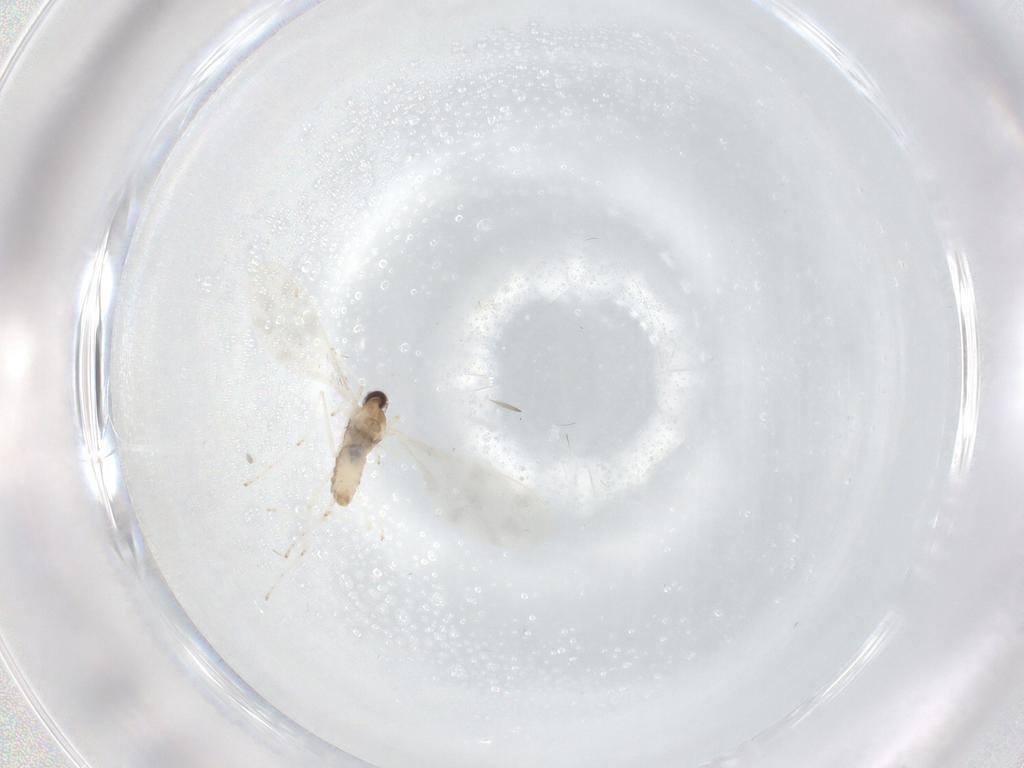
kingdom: Animalia
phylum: Arthropoda
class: Insecta
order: Diptera
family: Cecidomyiidae
